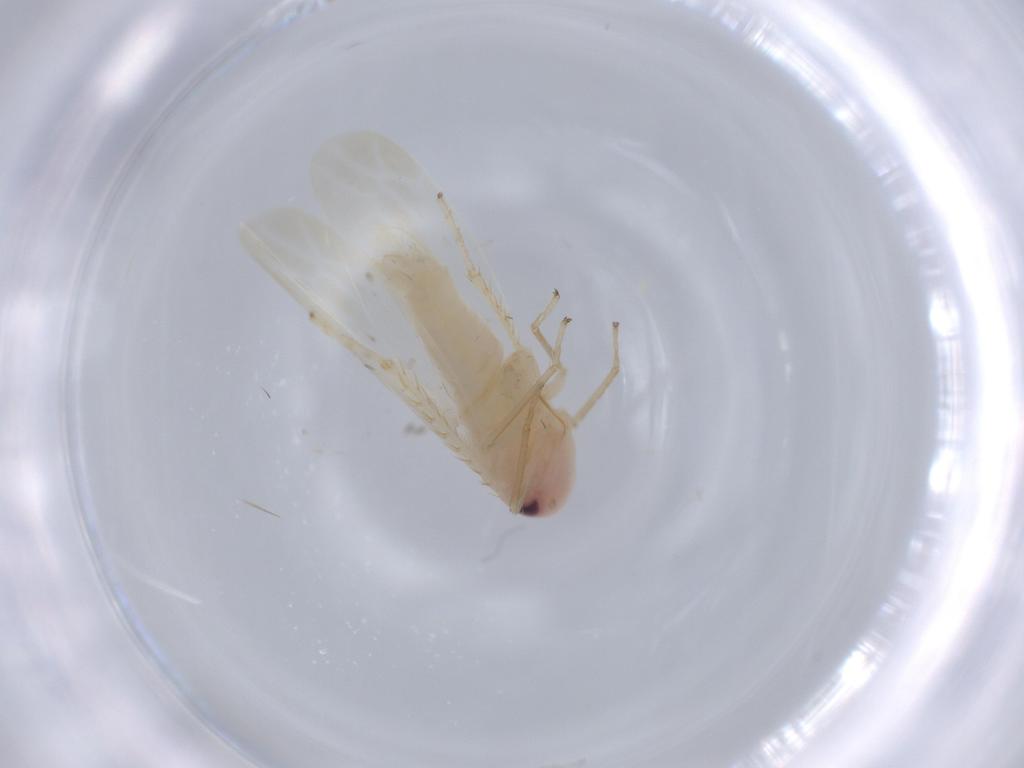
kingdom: Animalia
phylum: Arthropoda
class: Insecta
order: Hemiptera
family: Cicadellidae
